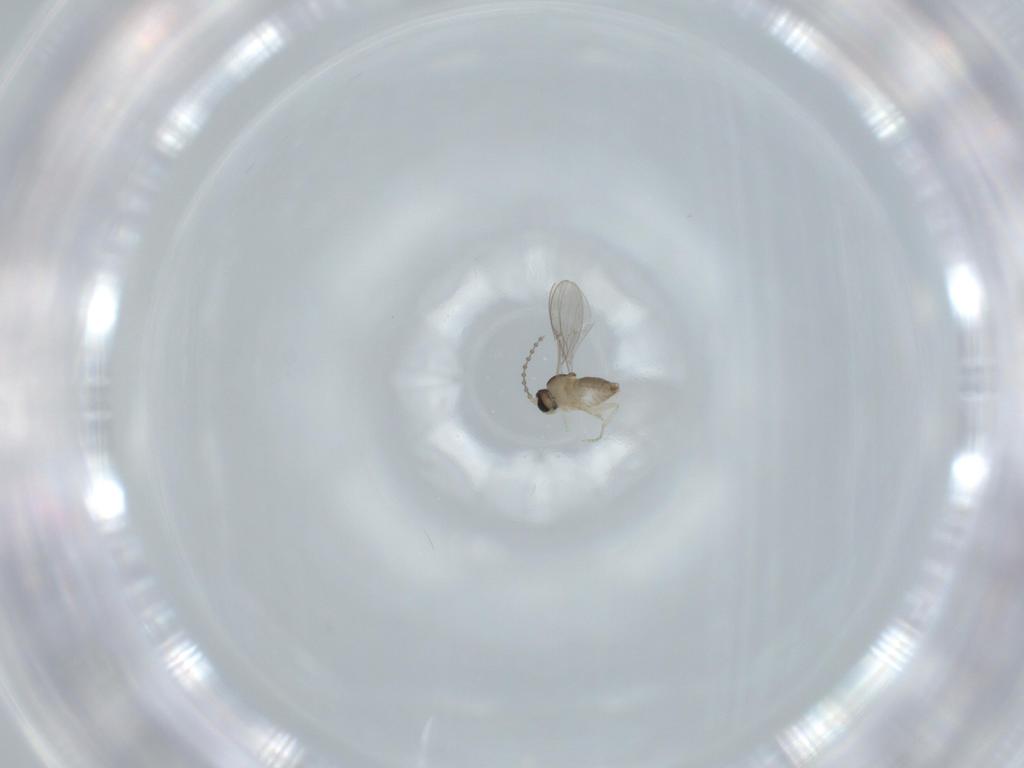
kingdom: Animalia
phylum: Arthropoda
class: Insecta
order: Diptera
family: Cecidomyiidae
